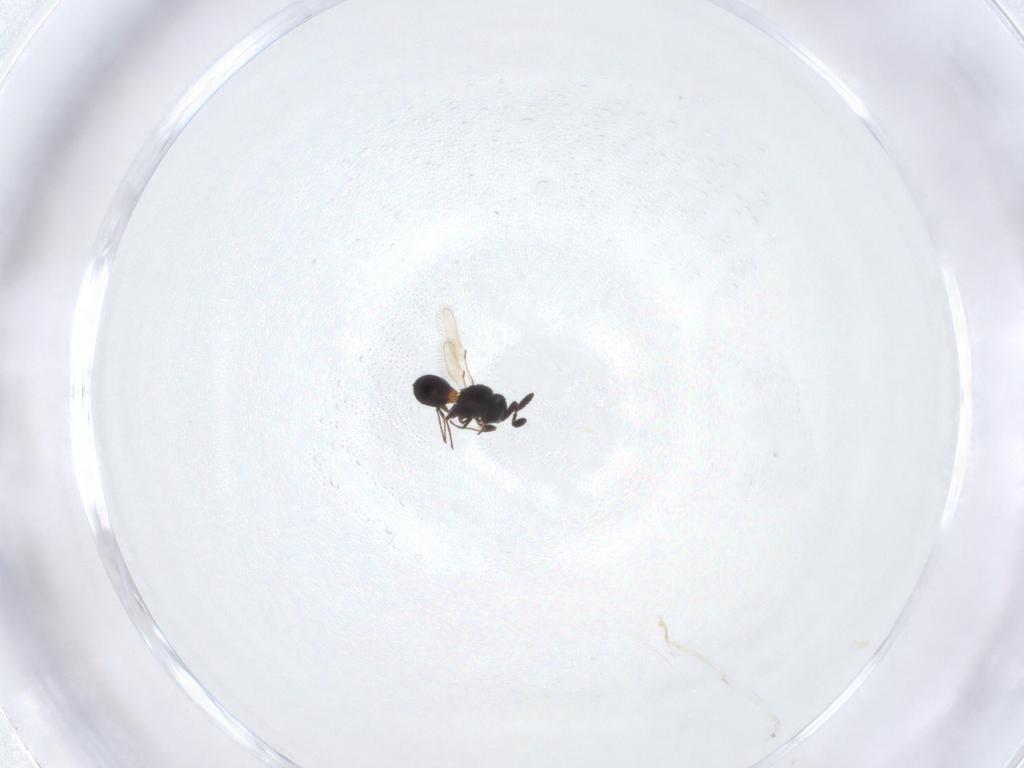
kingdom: Animalia
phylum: Arthropoda
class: Insecta
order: Hymenoptera
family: Scelionidae
